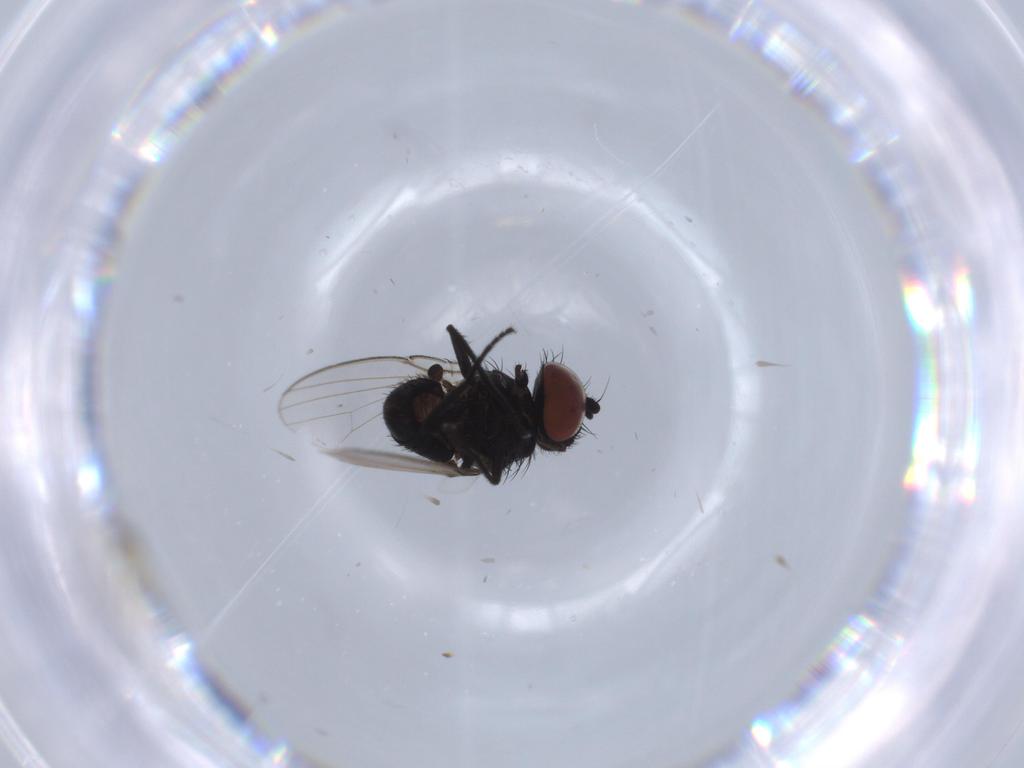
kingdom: Animalia
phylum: Arthropoda
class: Insecta
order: Diptera
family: Milichiidae
